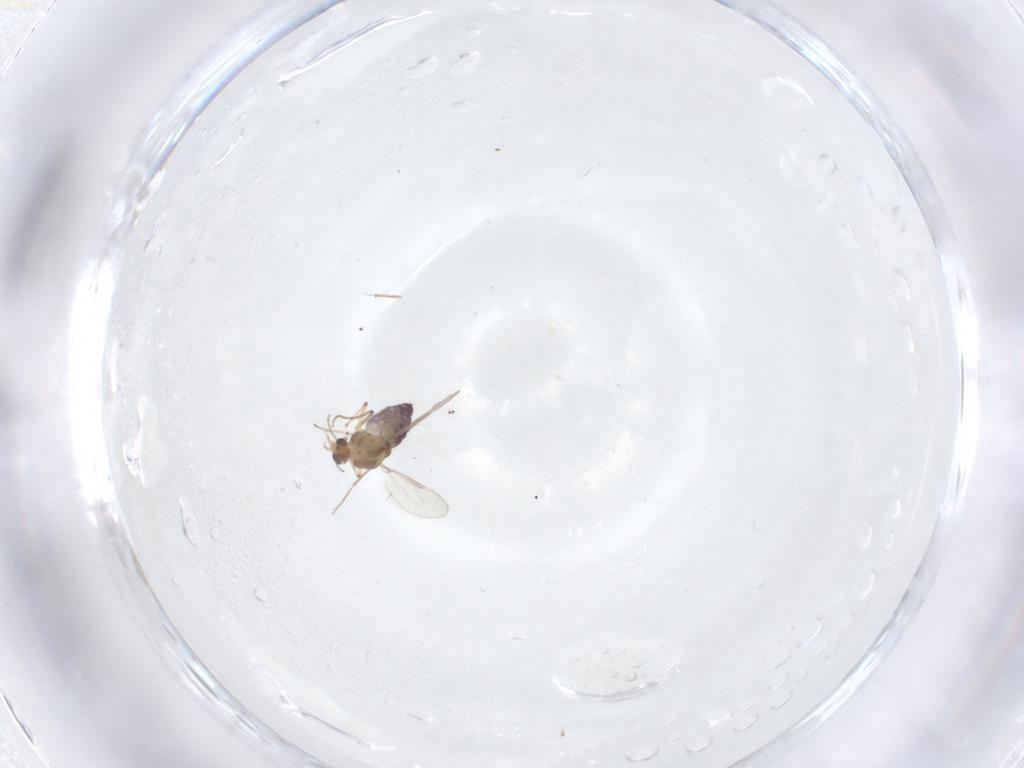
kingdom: Animalia
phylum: Arthropoda
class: Insecta
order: Diptera
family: Chironomidae
